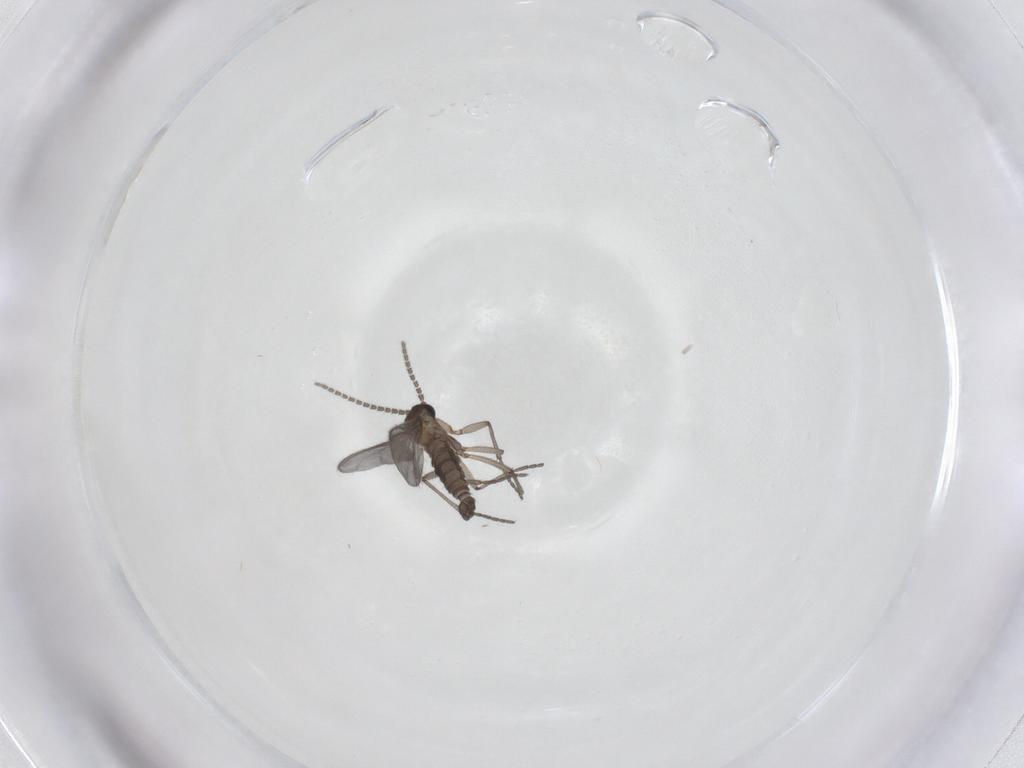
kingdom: Animalia
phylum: Arthropoda
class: Insecta
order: Diptera
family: Sciaridae
